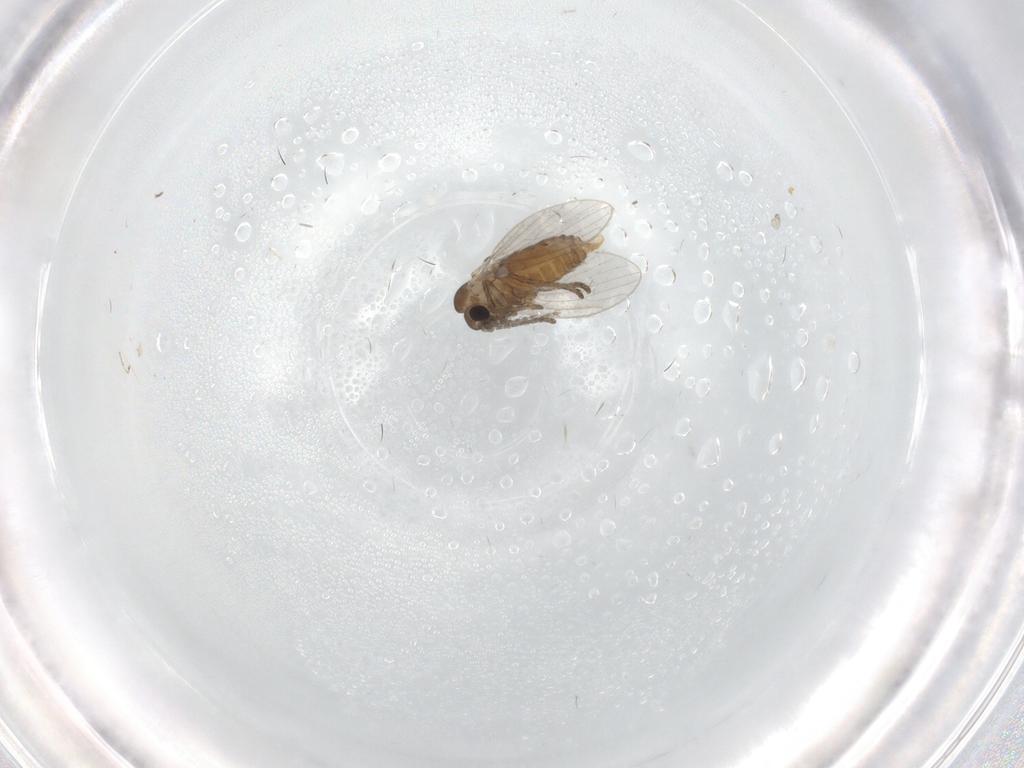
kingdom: Animalia
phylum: Arthropoda
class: Insecta
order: Diptera
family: Psychodidae
